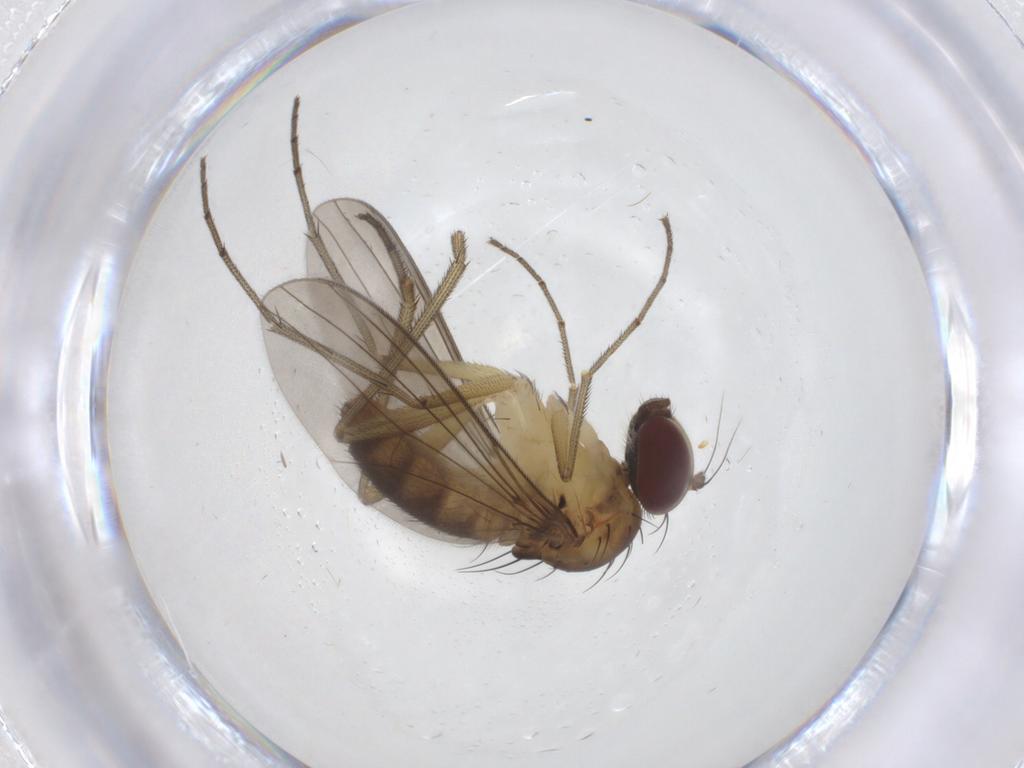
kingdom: Animalia
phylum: Arthropoda
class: Insecta
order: Diptera
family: Dolichopodidae
